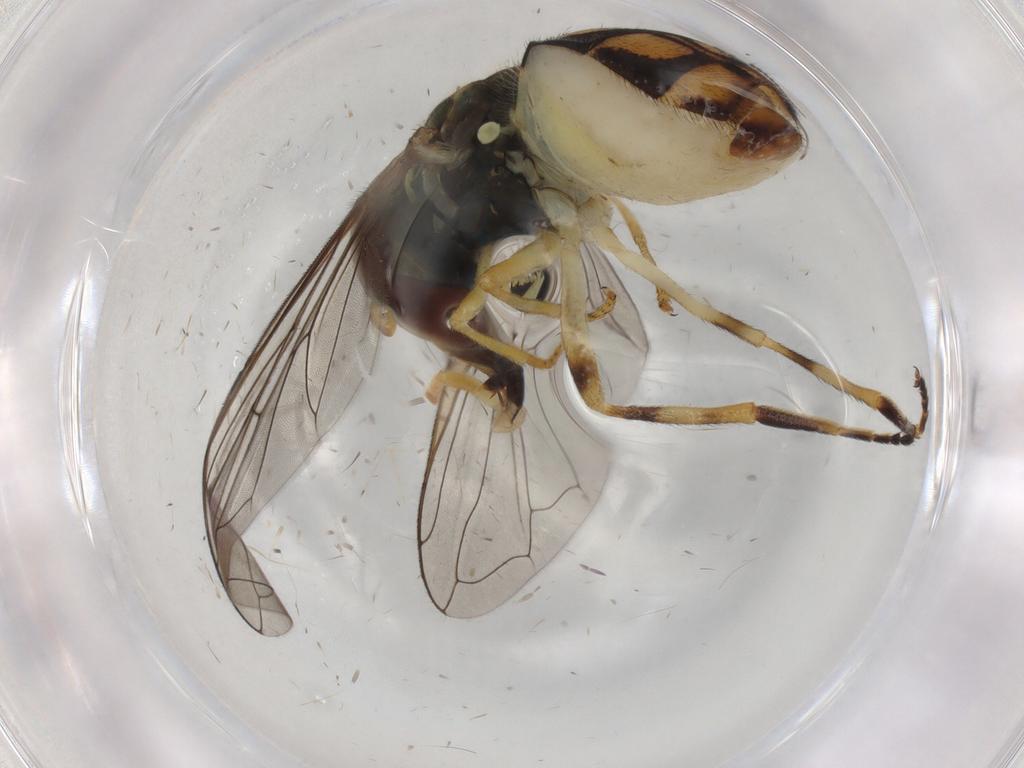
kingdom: Animalia
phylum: Arthropoda
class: Insecta
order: Diptera
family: Syrphidae
